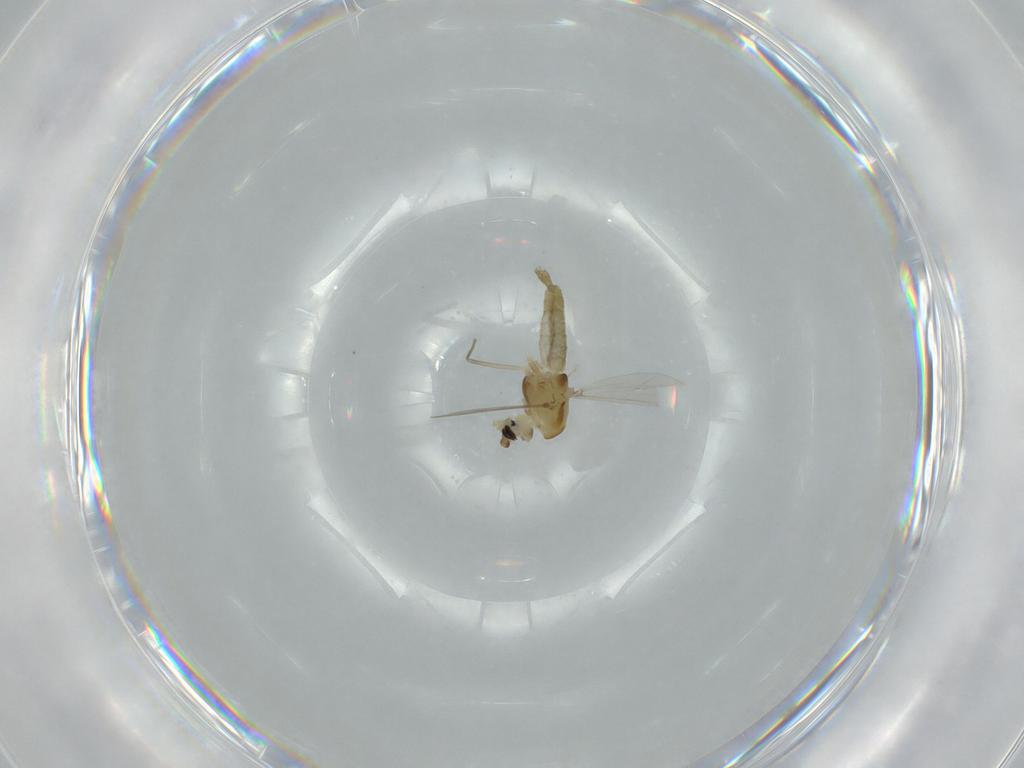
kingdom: Animalia
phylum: Arthropoda
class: Insecta
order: Diptera
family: Chironomidae
